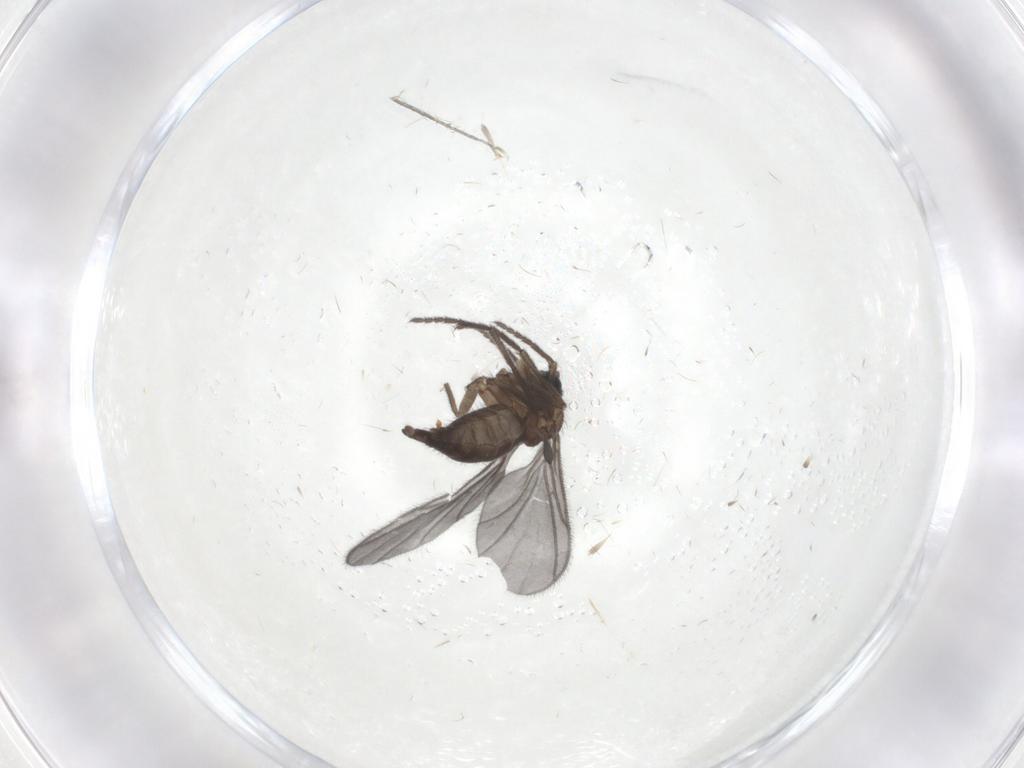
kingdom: Animalia
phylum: Arthropoda
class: Insecta
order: Diptera
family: Sciaridae
